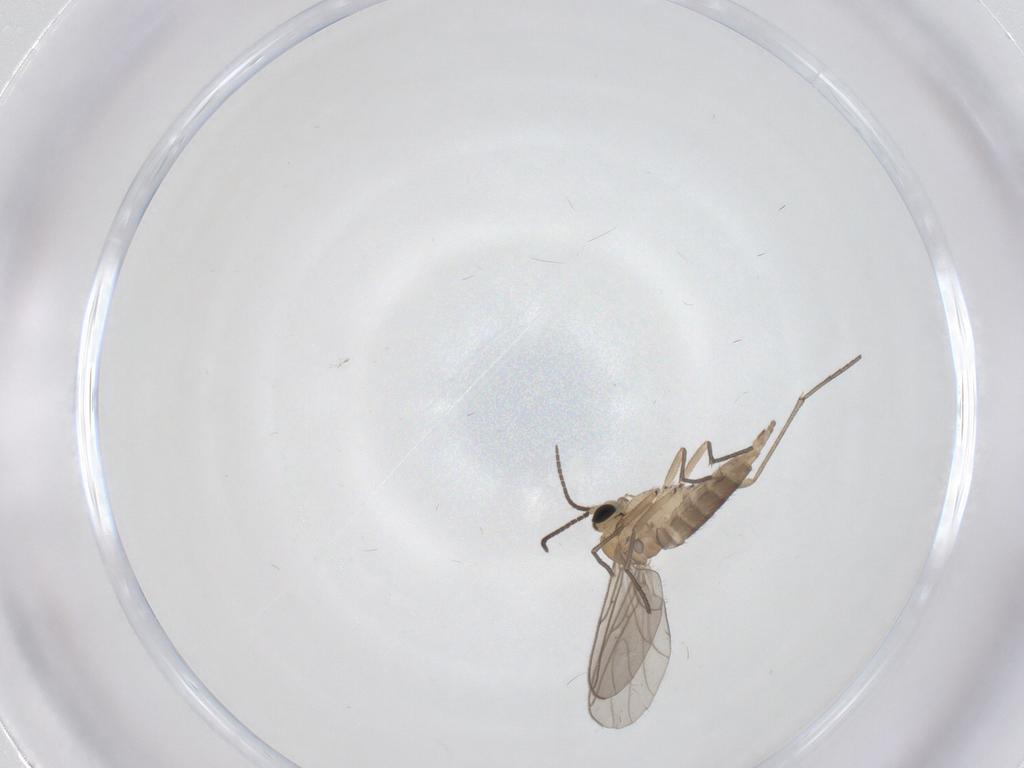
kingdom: Animalia
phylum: Arthropoda
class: Insecta
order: Diptera
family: Sciaridae
